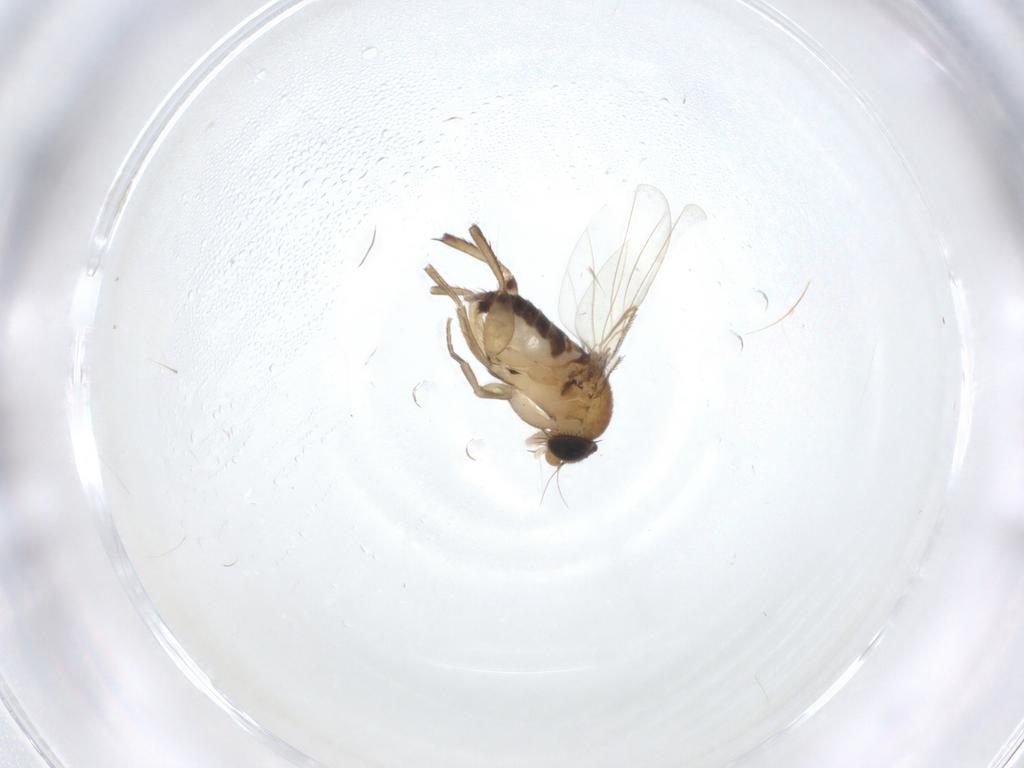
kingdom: Animalia
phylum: Arthropoda
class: Insecta
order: Diptera
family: Phoridae
